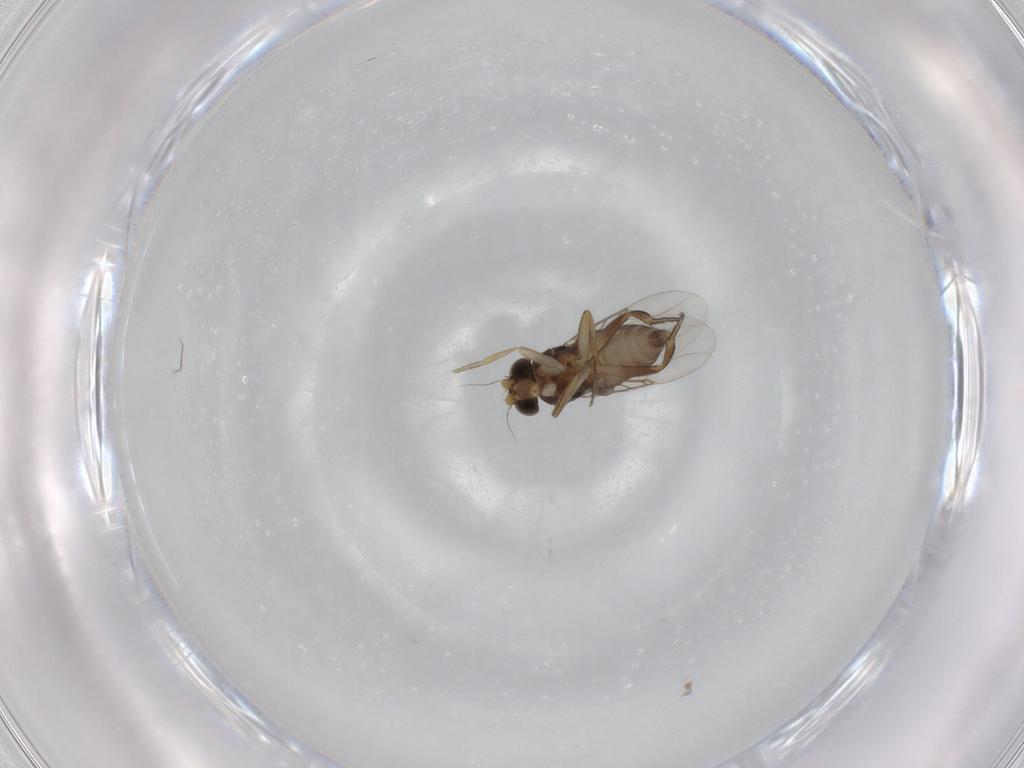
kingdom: Animalia
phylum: Arthropoda
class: Insecta
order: Diptera
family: Phoridae
